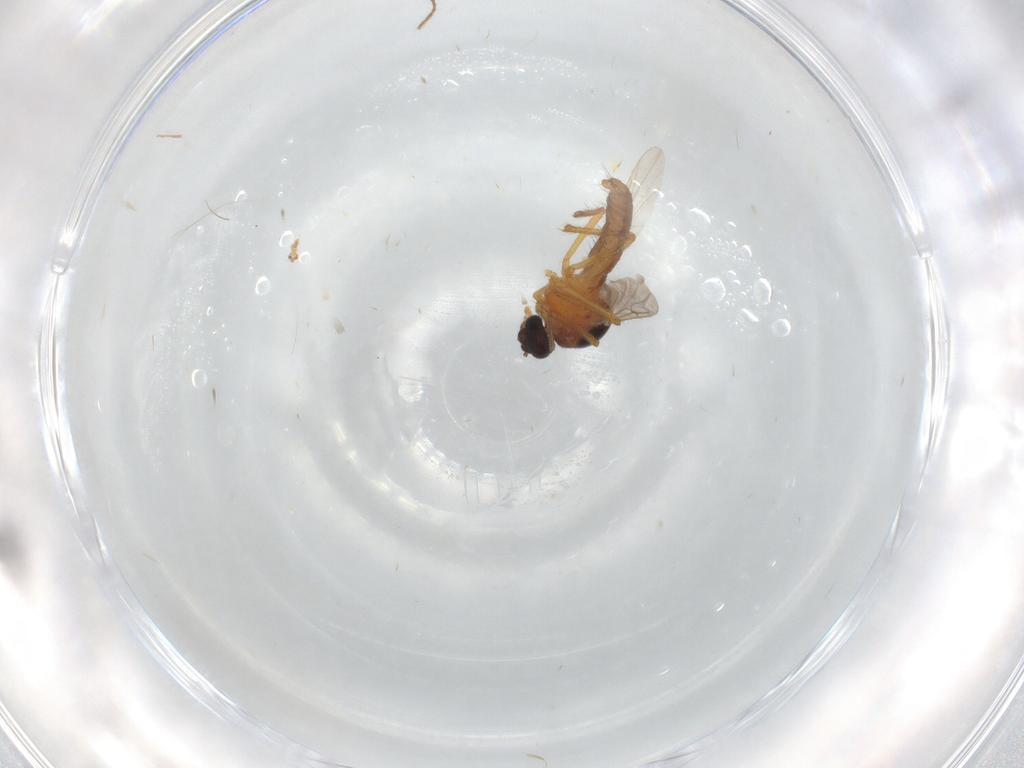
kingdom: Animalia
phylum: Arthropoda
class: Insecta
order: Diptera
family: Ceratopogonidae
